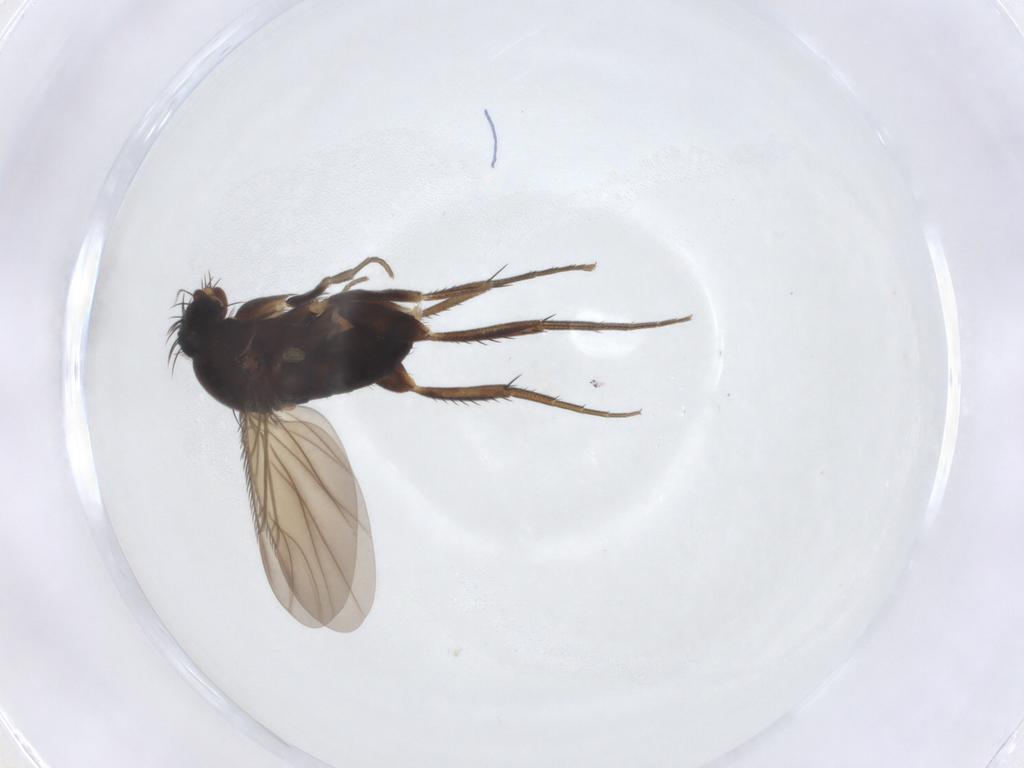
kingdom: Animalia
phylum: Arthropoda
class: Insecta
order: Diptera
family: Phoridae
